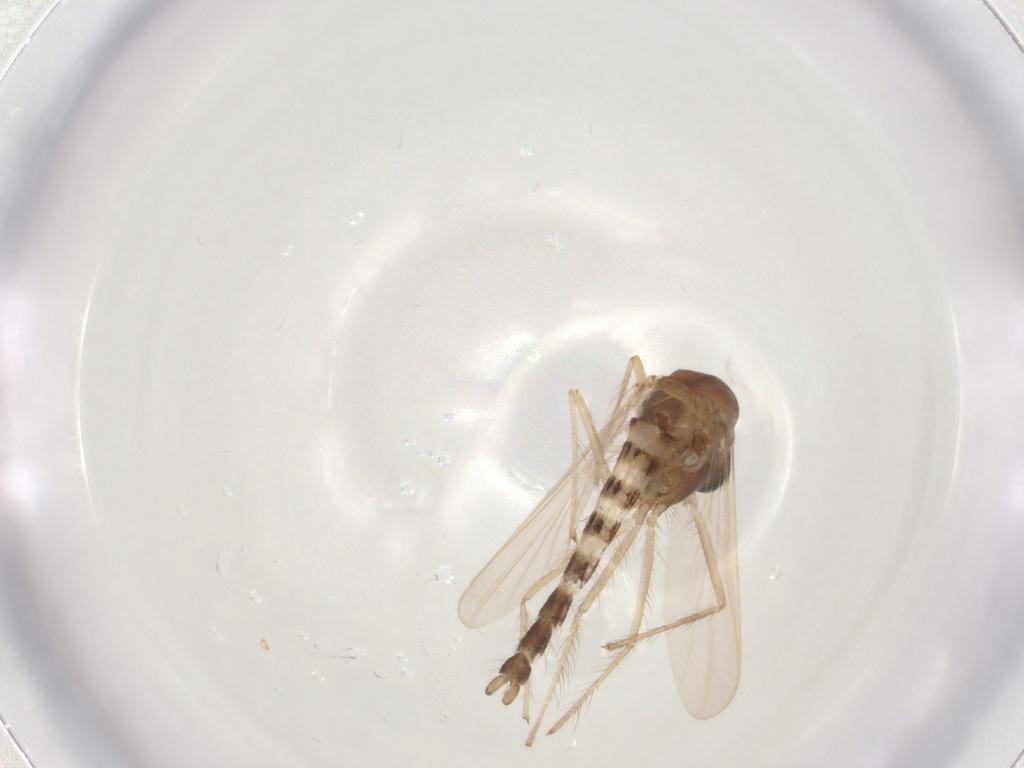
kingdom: Animalia
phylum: Arthropoda
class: Insecta
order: Diptera
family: Chironomidae
